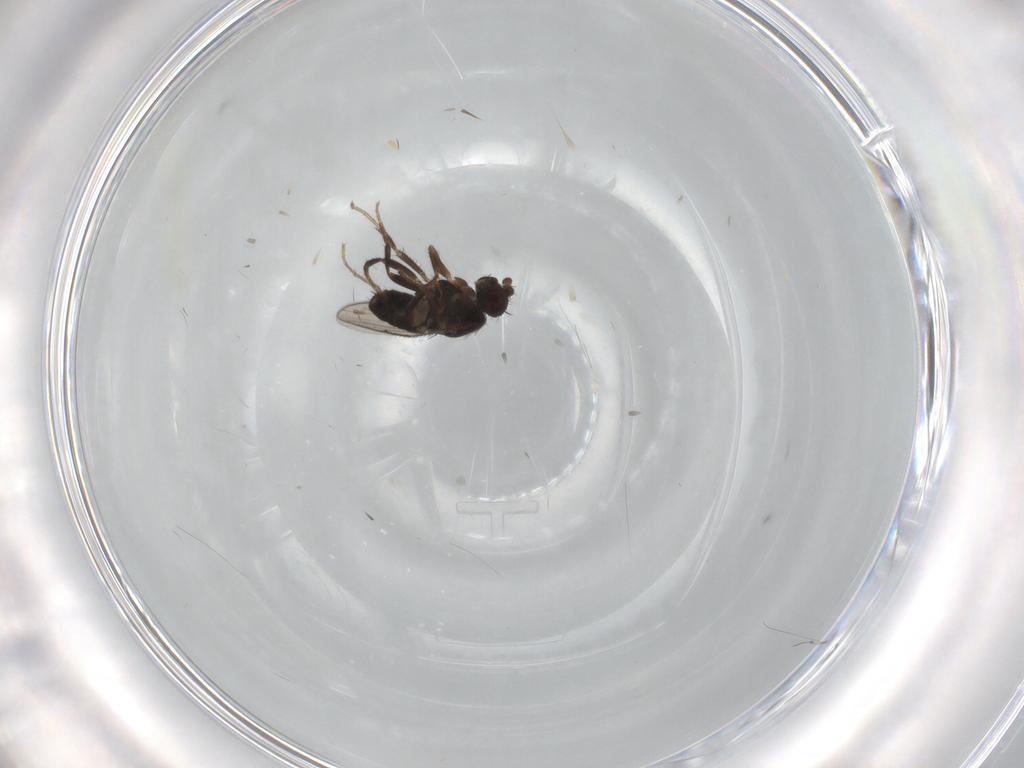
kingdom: Animalia
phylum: Arthropoda
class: Insecta
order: Diptera
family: Sphaeroceridae
